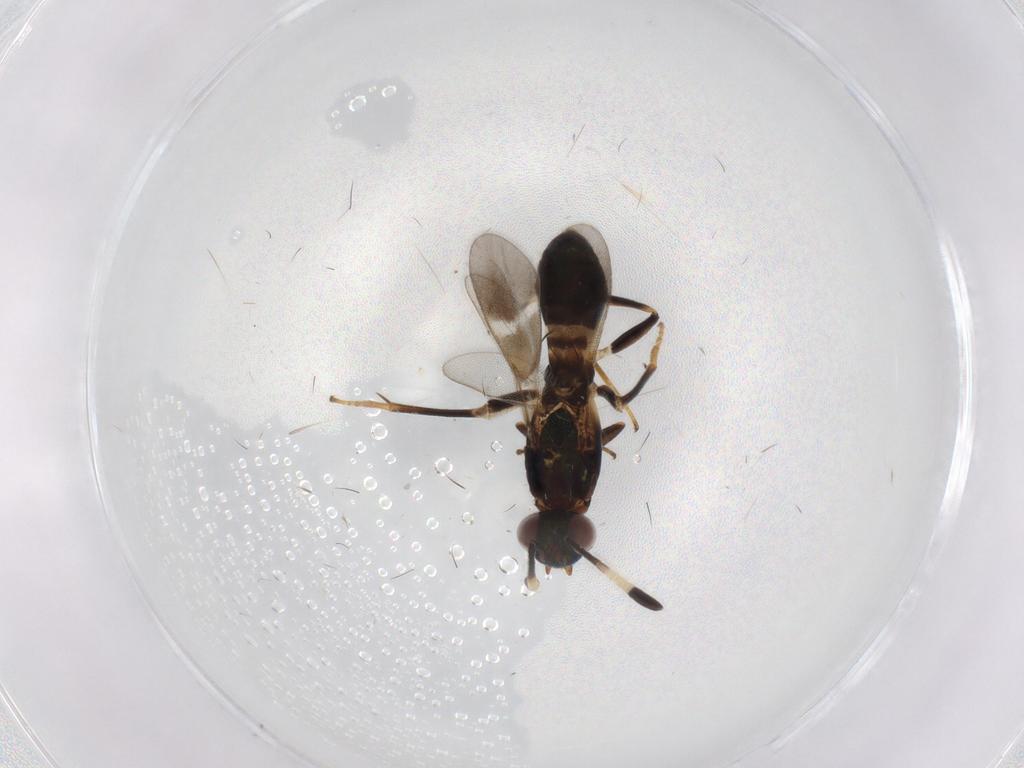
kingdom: Animalia
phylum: Arthropoda
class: Insecta
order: Hymenoptera
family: Eupelmidae
